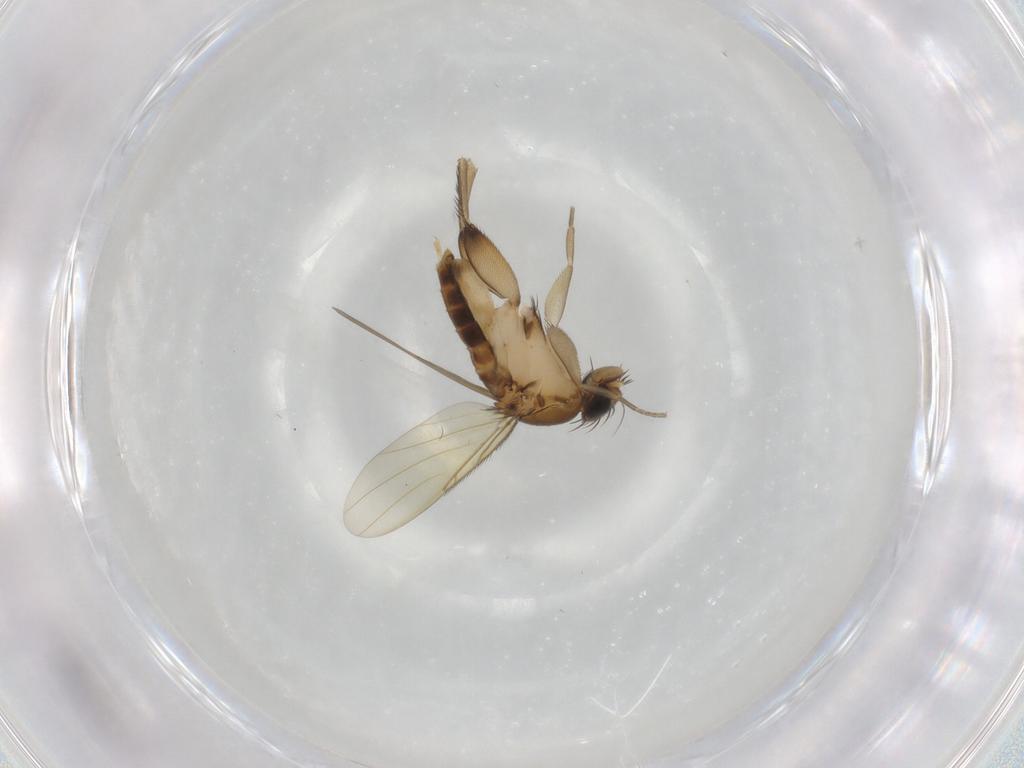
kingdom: Animalia
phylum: Arthropoda
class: Insecta
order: Diptera
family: Phoridae
